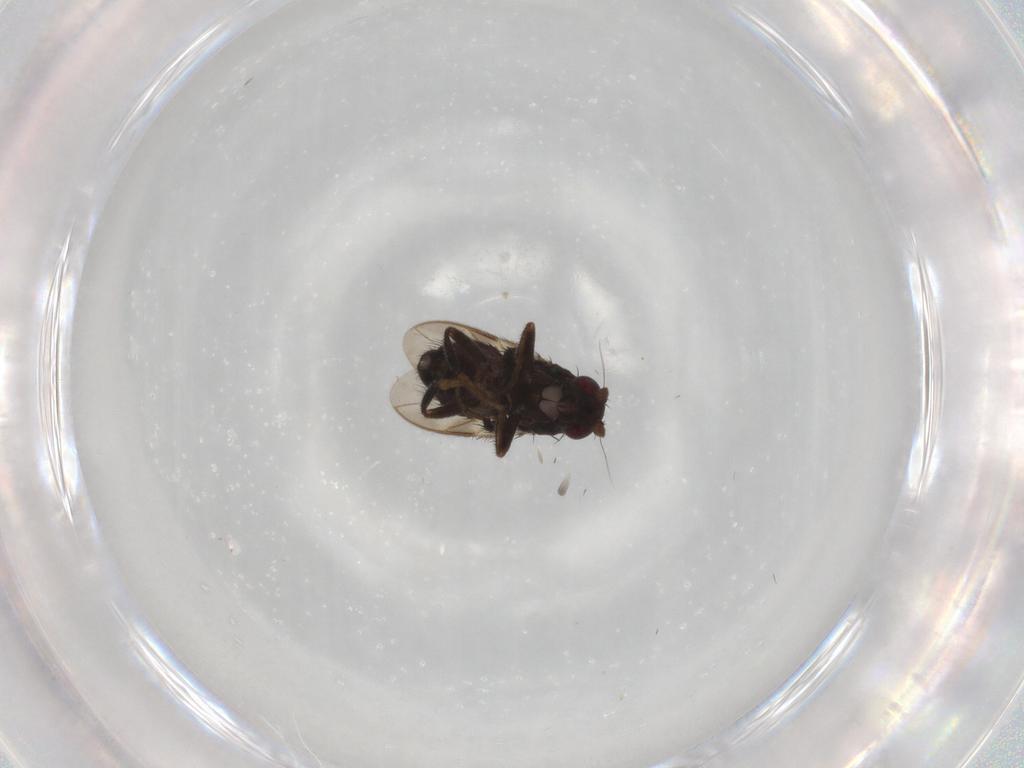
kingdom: Animalia
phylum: Arthropoda
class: Insecta
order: Diptera
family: Sphaeroceridae
